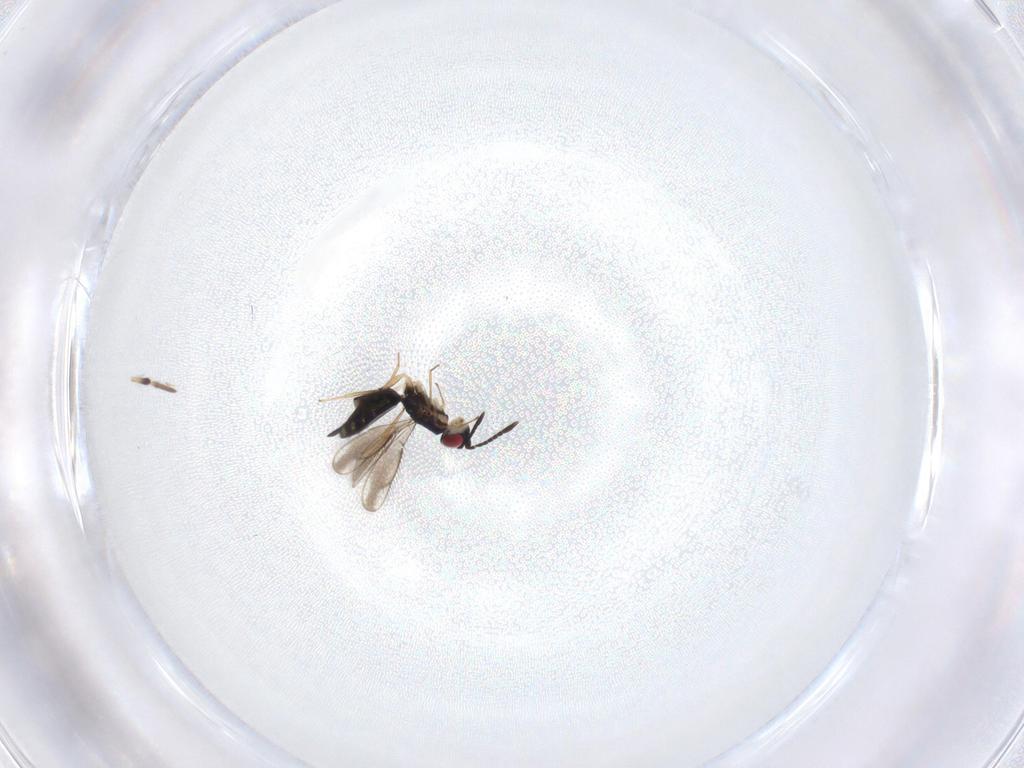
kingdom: Animalia
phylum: Arthropoda
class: Insecta
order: Hymenoptera
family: Pteromalidae
